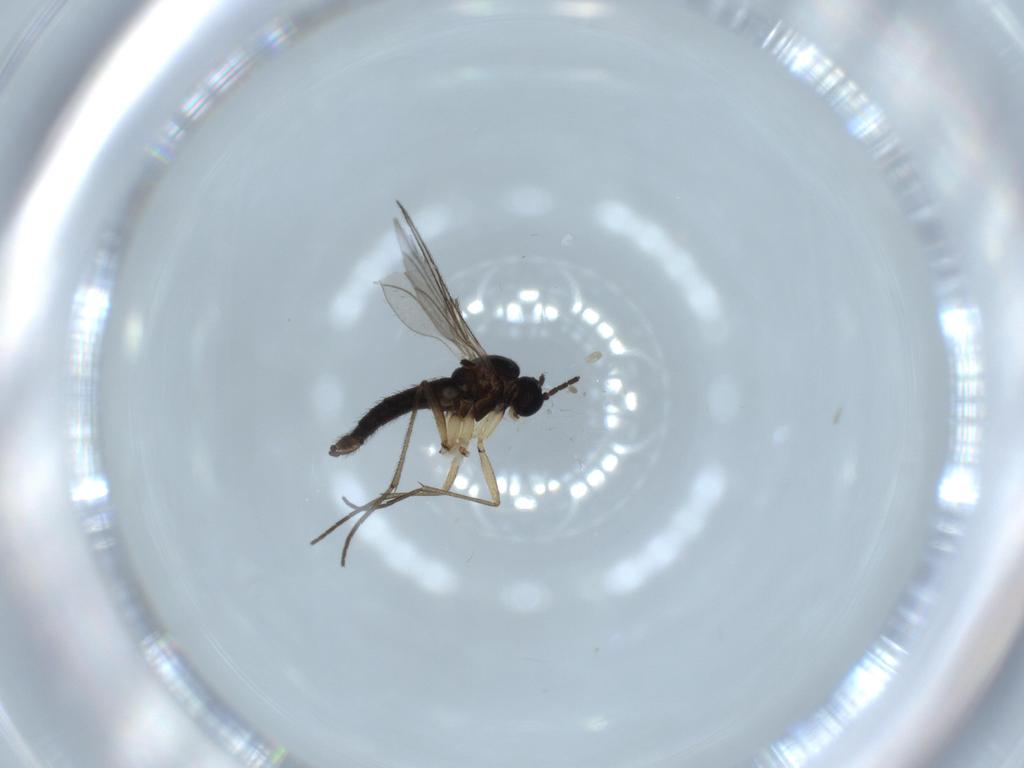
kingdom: Animalia
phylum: Arthropoda
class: Insecta
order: Diptera
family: Sciaridae
